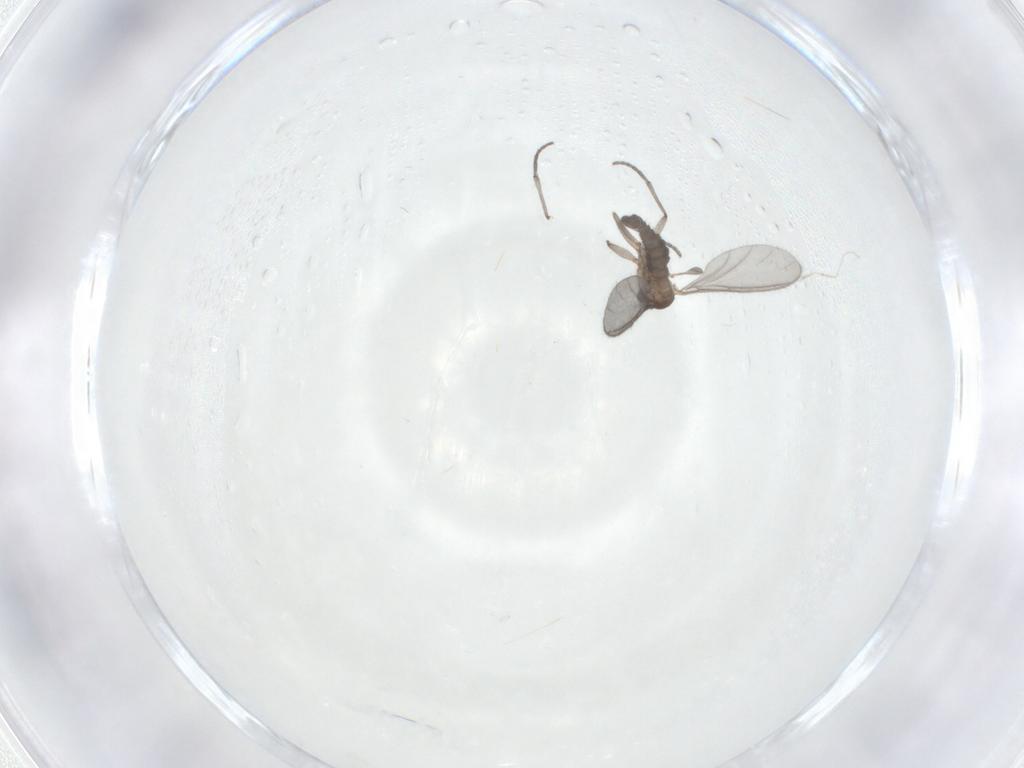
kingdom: Animalia
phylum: Arthropoda
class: Insecta
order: Diptera
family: Sciaridae
